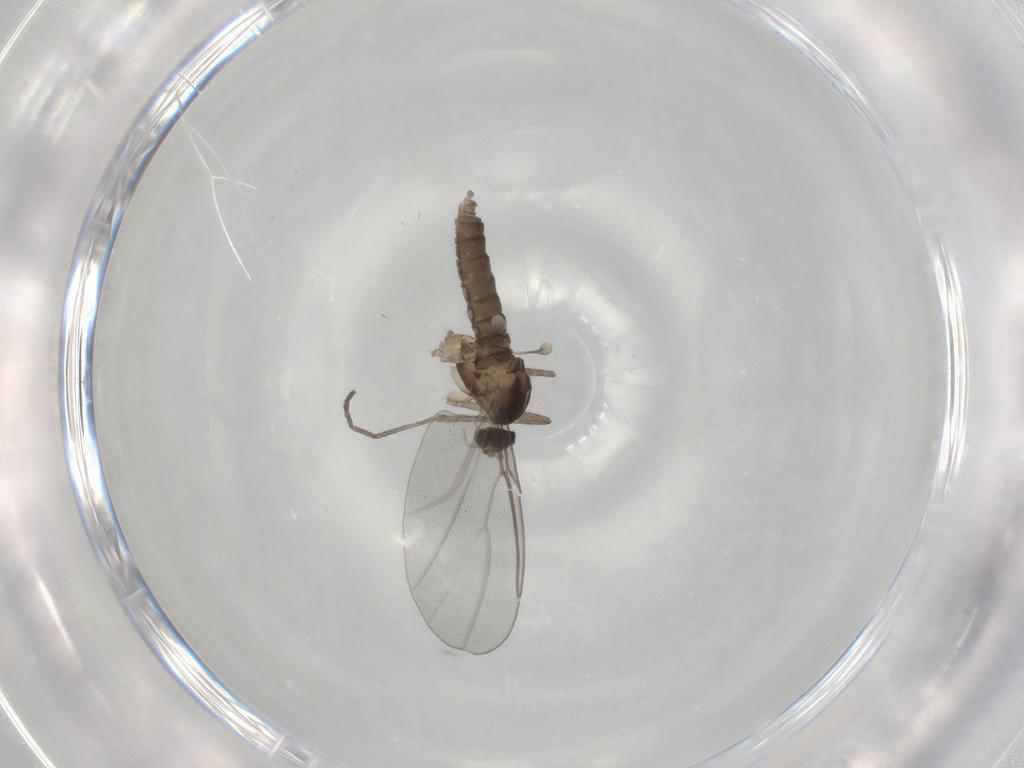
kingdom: Animalia
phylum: Arthropoda
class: Insecta
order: Diptera
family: Cecidomyiidae
